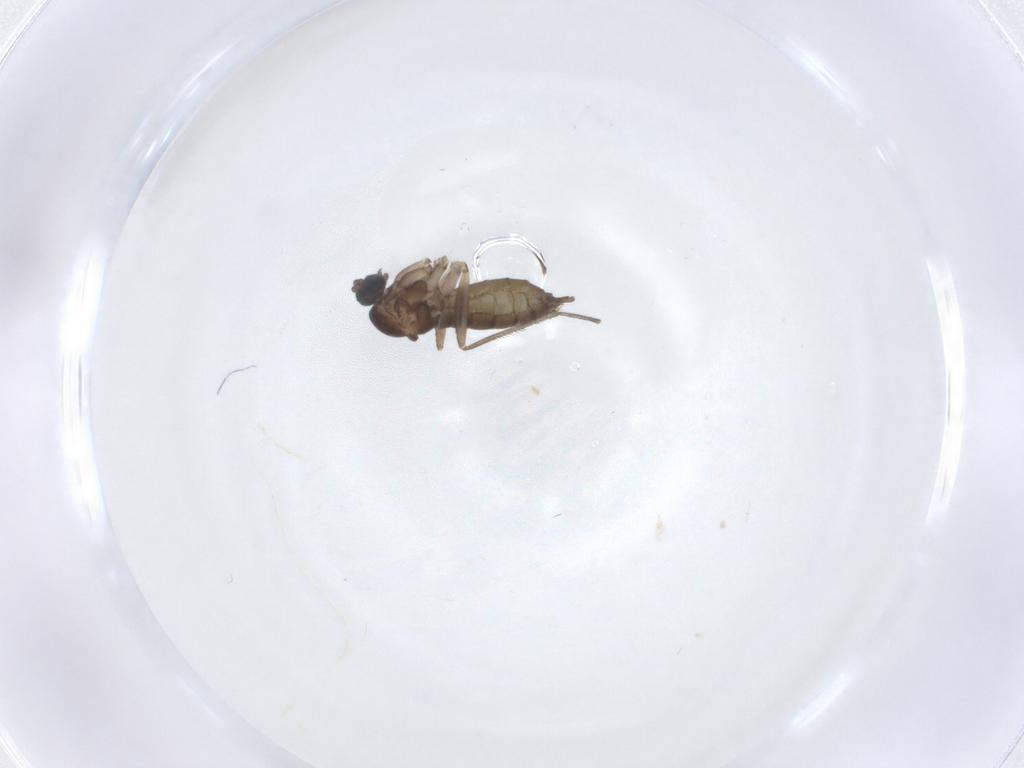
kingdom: Animalia
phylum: Arthropoda
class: Insecta
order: Diptera
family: Sciaridae
